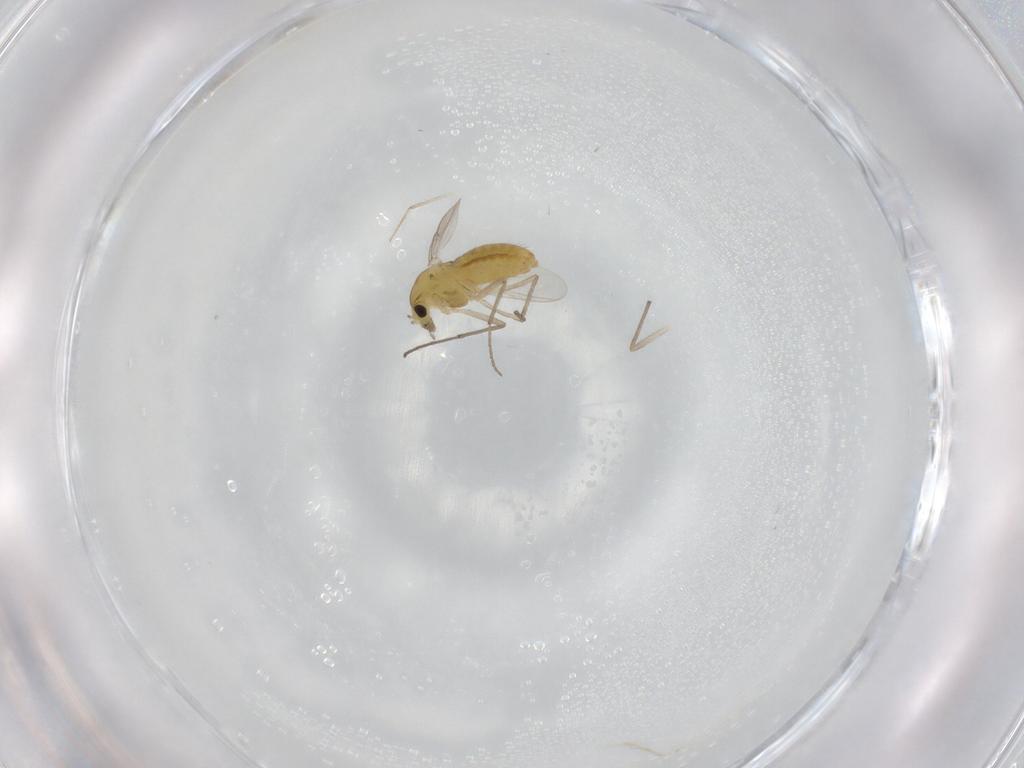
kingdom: Animalia
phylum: Arthropoda
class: Insecta
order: Diptera
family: Chironomidae
